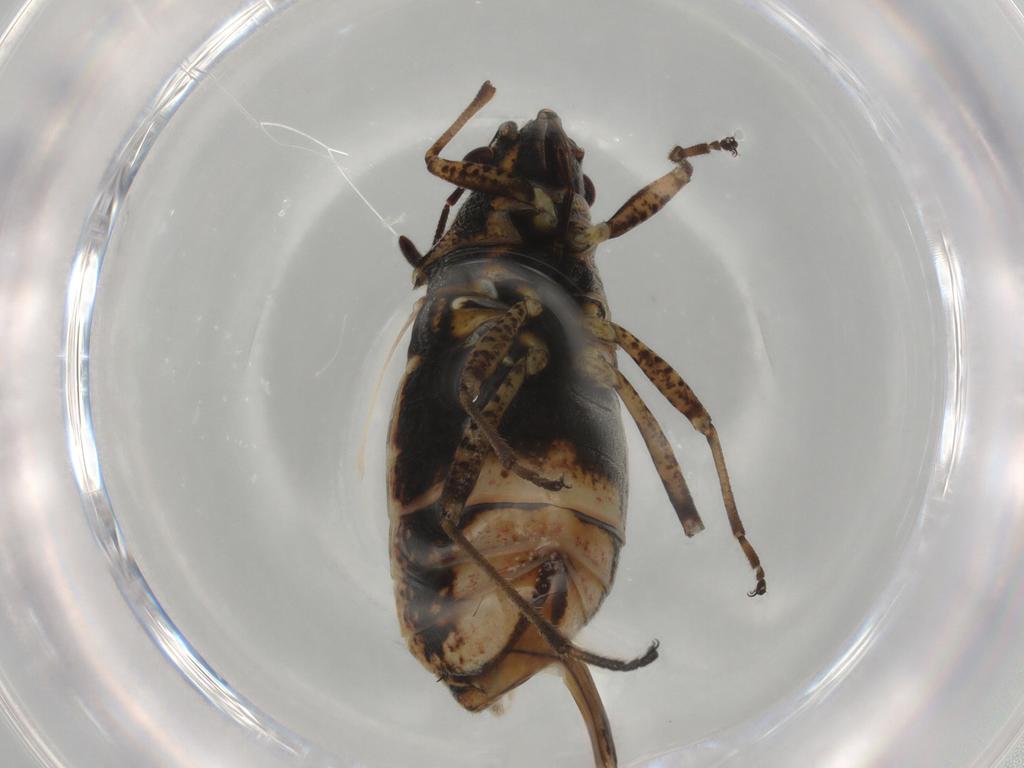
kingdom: Animalia
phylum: Arthropoda
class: Insecta
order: Hemiptera
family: Lygaeidae
